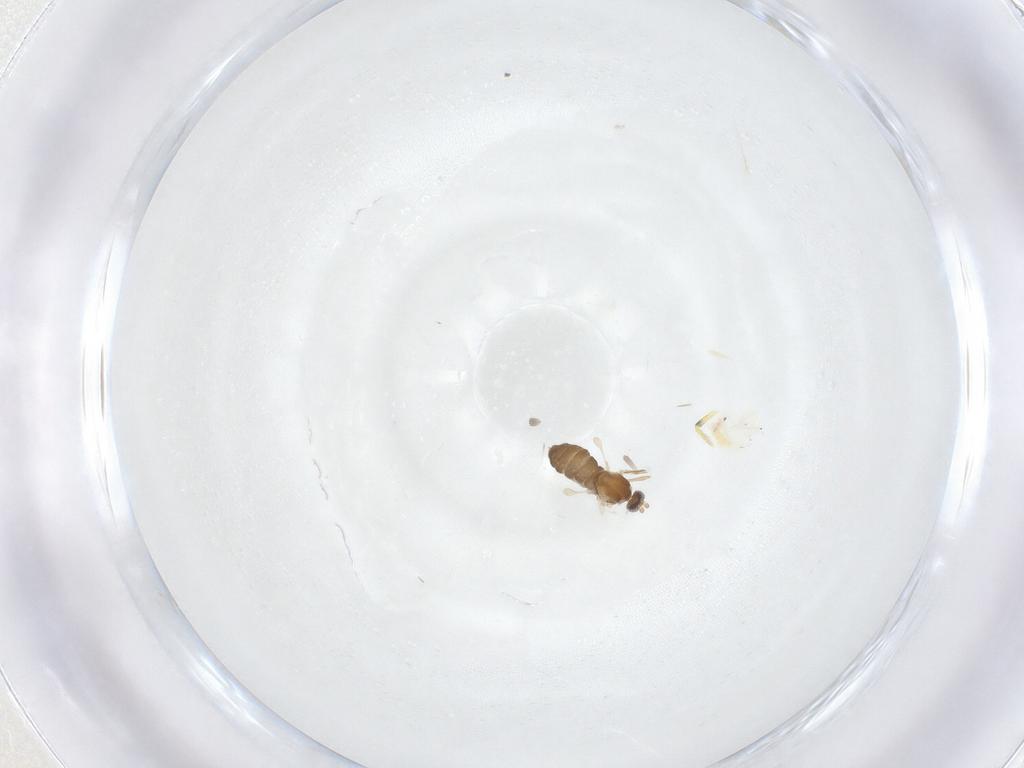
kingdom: Animalia
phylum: Arthropoda
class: Insecta
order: Diptera
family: Cecidomyiidae
